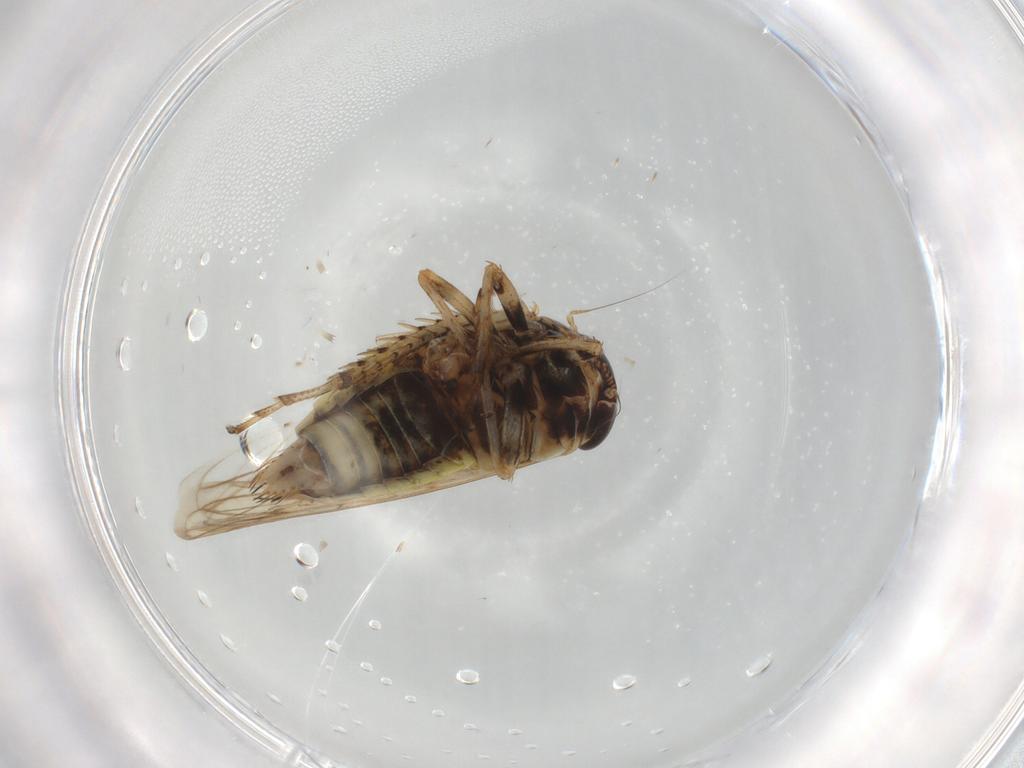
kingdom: Animalia
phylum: Arthropoda
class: Insecta
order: Hemiptera
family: Cicadellidae
